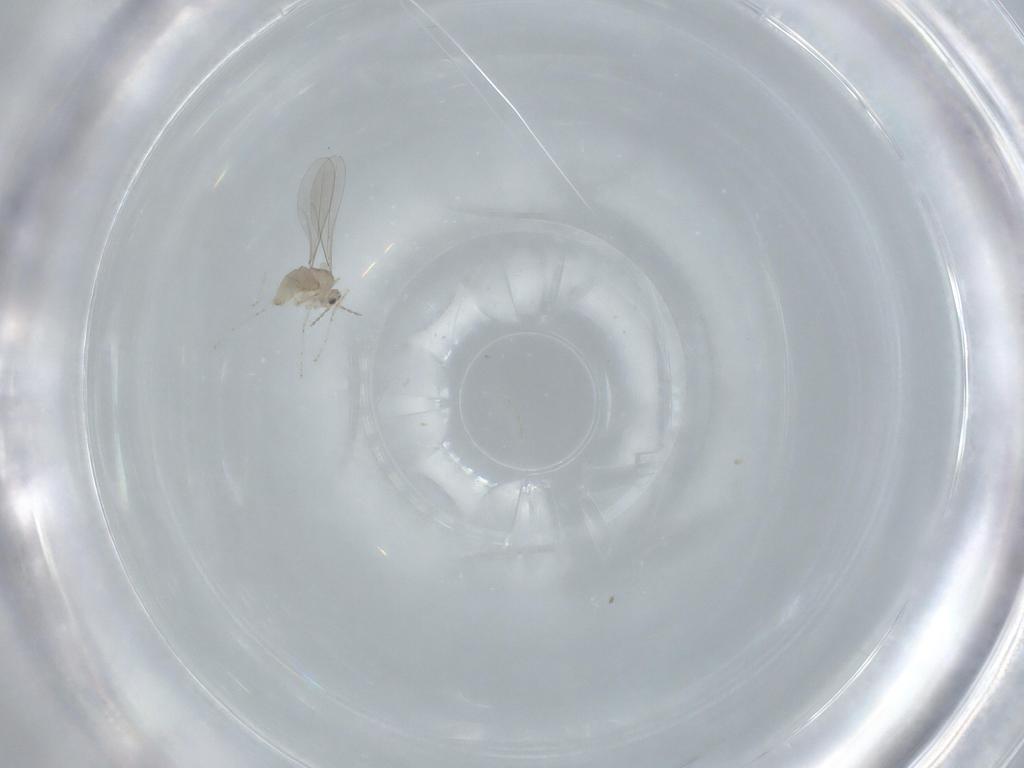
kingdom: Animalia
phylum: Arthropoda
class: Insecta
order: Diptera
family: Cecidomyiidae
